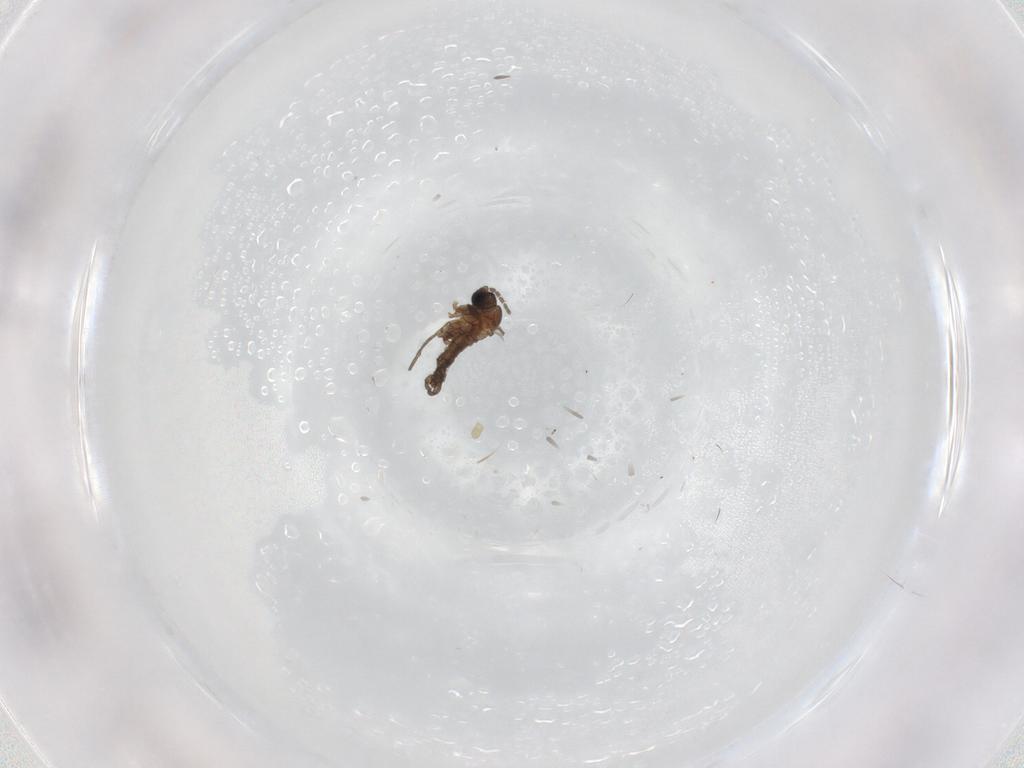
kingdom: Animalia
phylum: Arthropoda
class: Insecta
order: Diptera
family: Sciaridae
